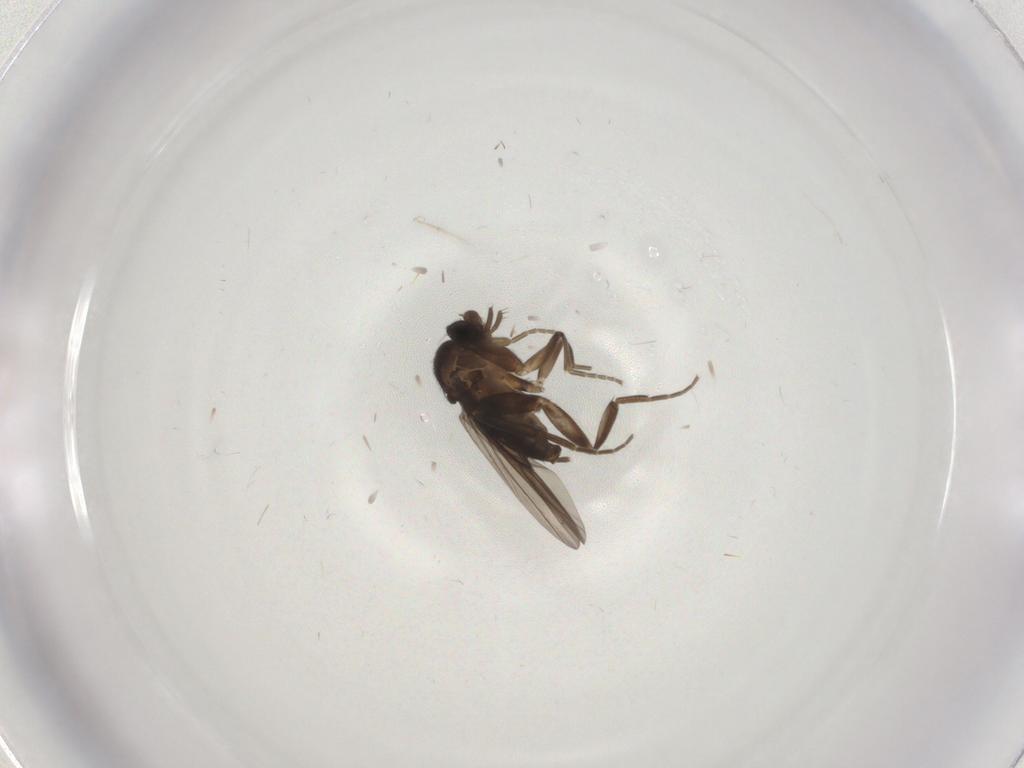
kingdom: Animalia
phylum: Arthropoda
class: Insecta
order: Diptera
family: Phoridae
